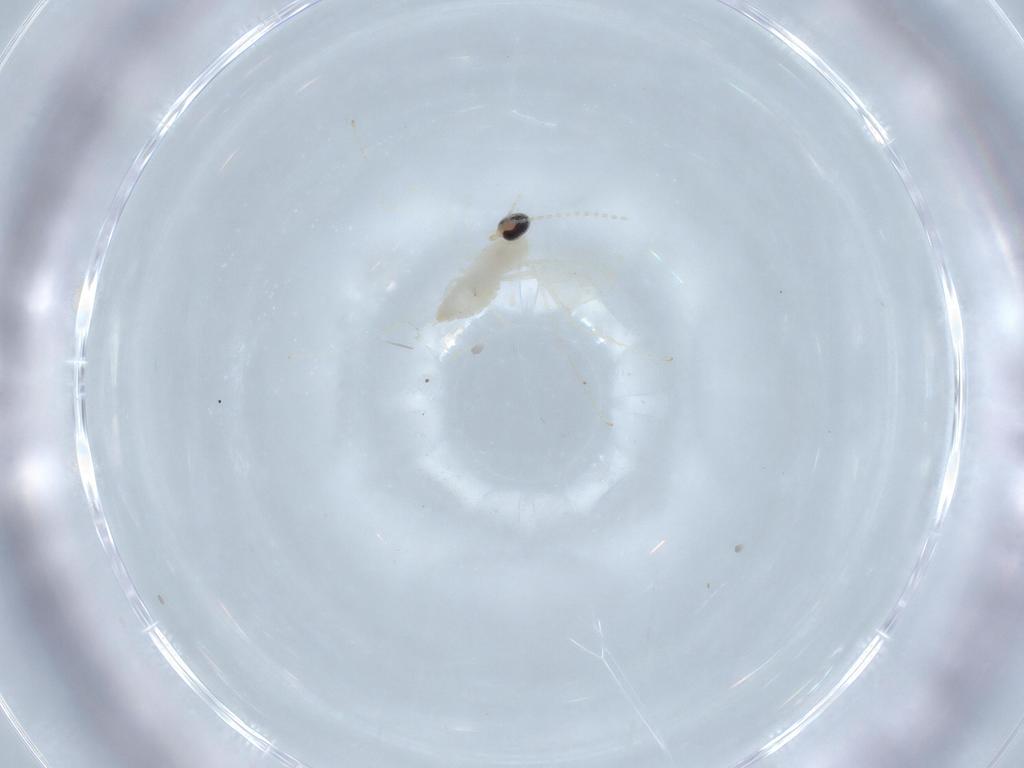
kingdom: Animalia
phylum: Arthropoda
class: Insecta
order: Diptera
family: Cecidomyiidae
